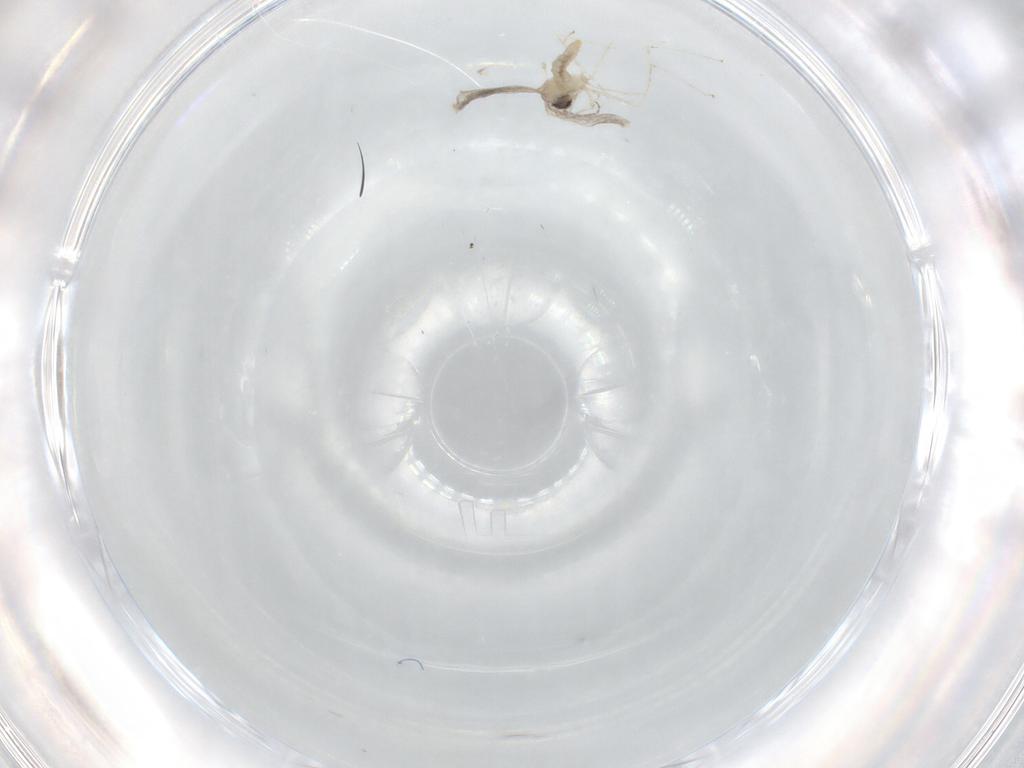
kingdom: Animalia
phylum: Arthropoda
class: Insecta
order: Diptera
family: Cecidomyiidae
